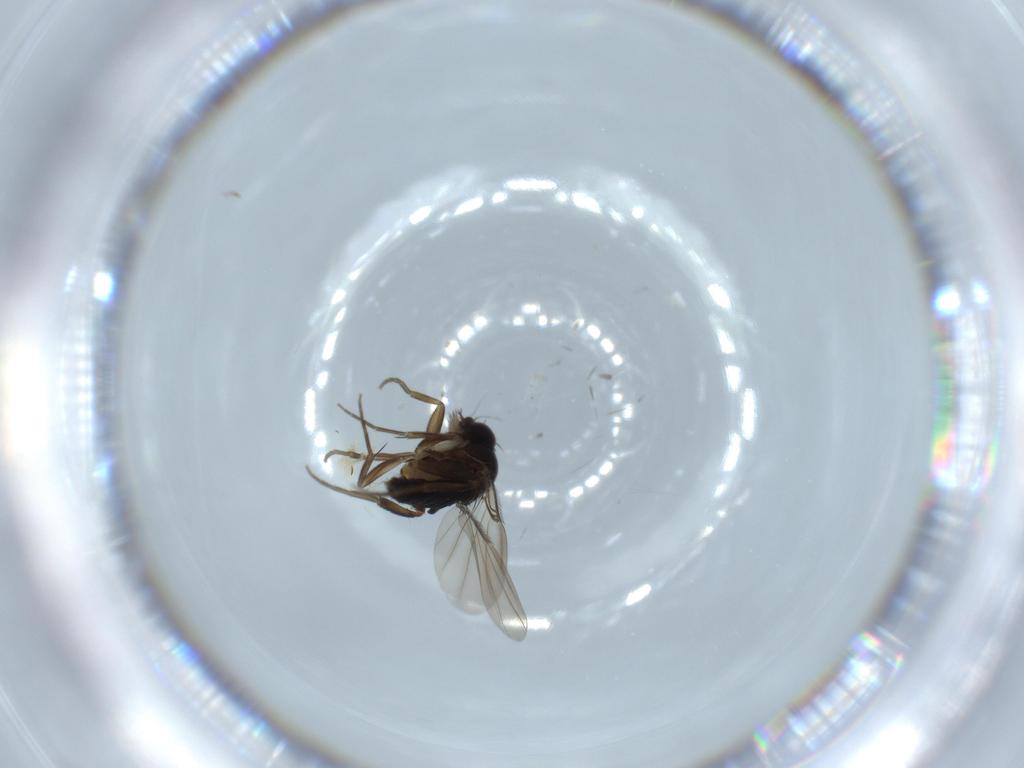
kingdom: Animalia
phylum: Arthropoda
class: Insecta
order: Diptera
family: Phoridae
